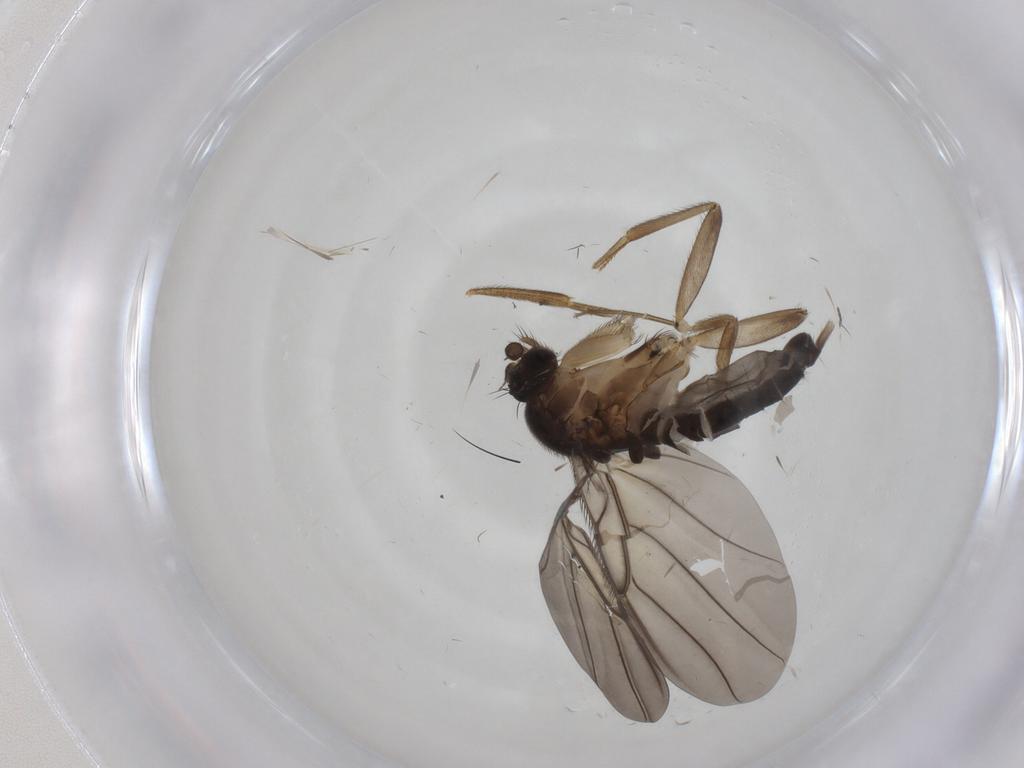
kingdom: Animalia
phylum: Arthropoda
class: Insecta
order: Diptera
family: Phoridae
